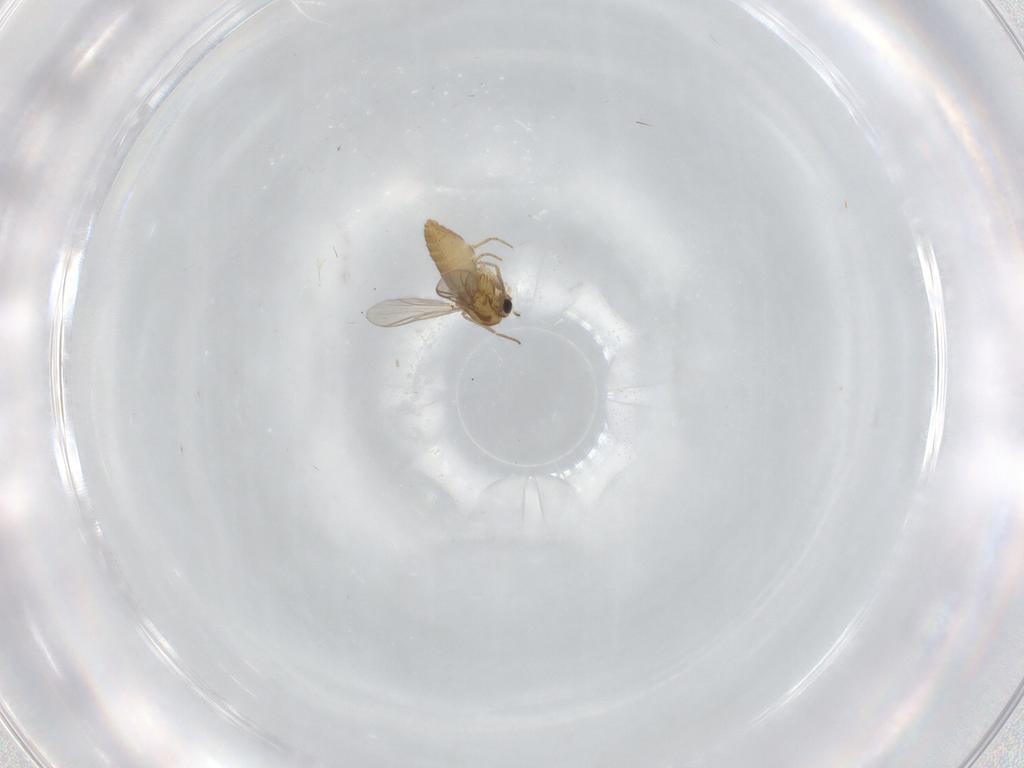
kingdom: Animalia
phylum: Arthropoda
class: Insecta
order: Diptera
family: Chironomidae
